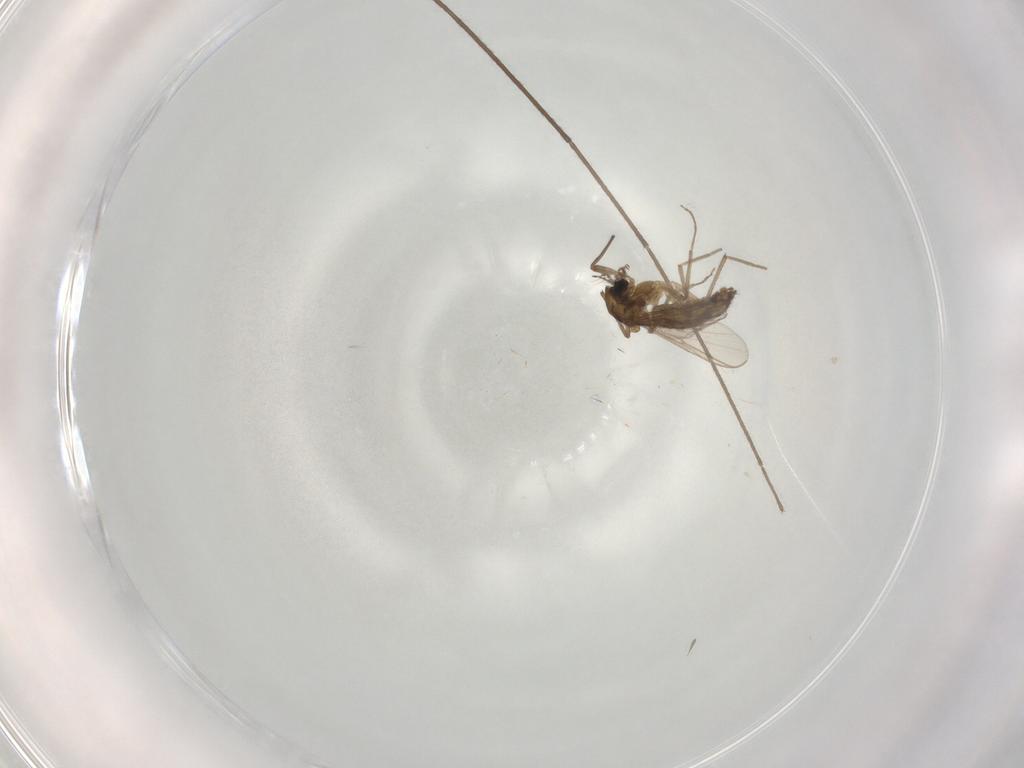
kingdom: Animalia
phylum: Arthropoda
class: Insecta
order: Diptera
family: Chironomidae
